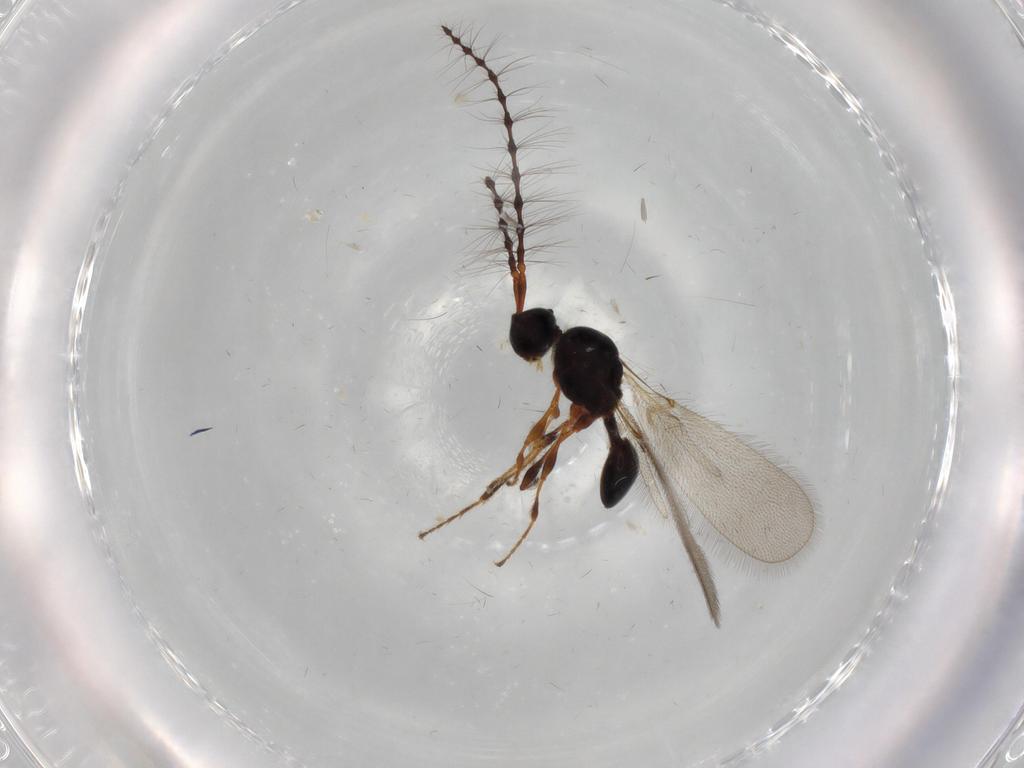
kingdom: Animalia
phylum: Arthropoda
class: Insecta
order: Hymenoptera
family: Diapriidae
